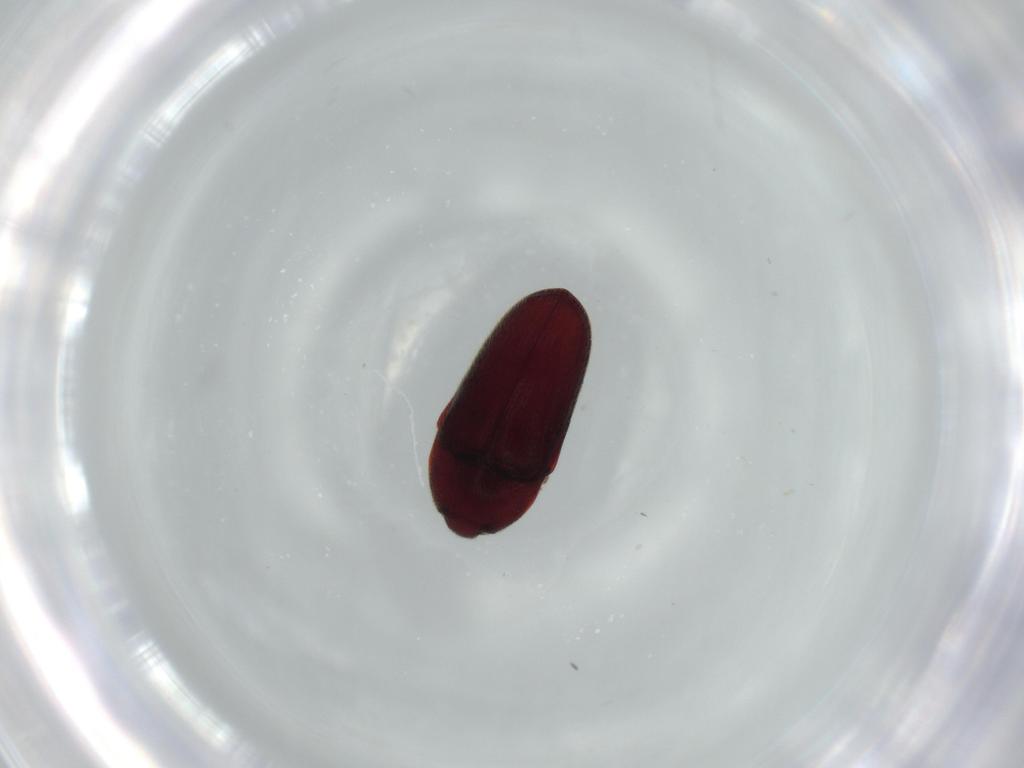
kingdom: Animalia
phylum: Arthropoda
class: Insecta
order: Coleoptera
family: Throscidae
